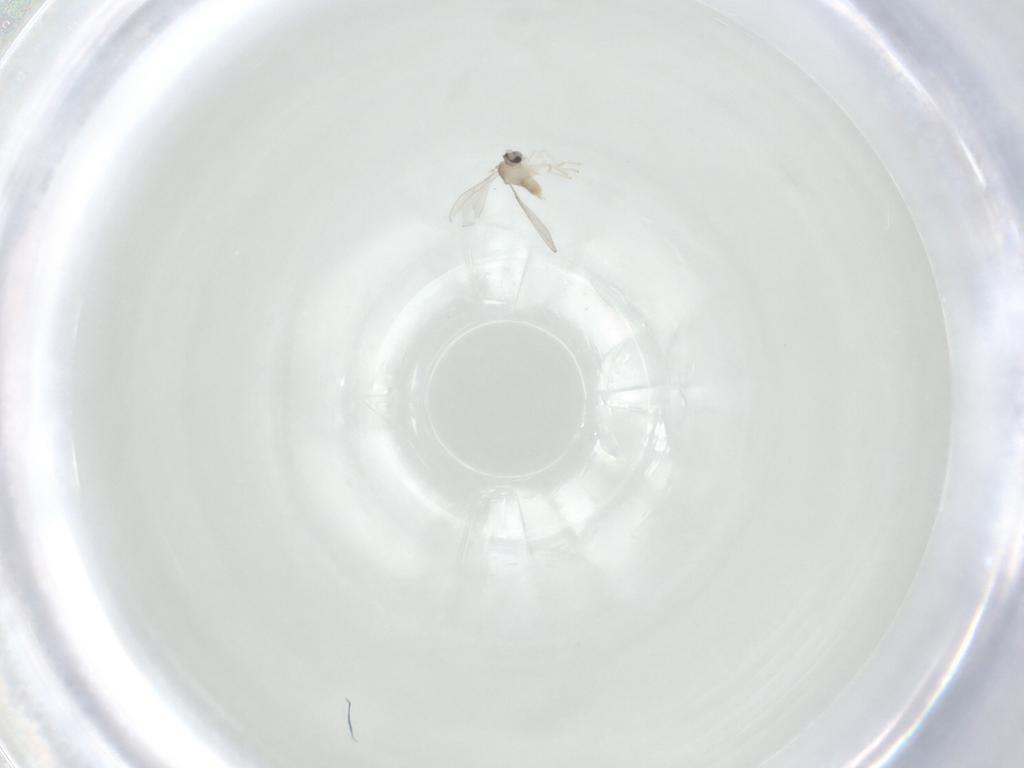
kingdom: Animalia
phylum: Arthropoda
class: Insecta
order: Diptera
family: Cecidomyiidae
